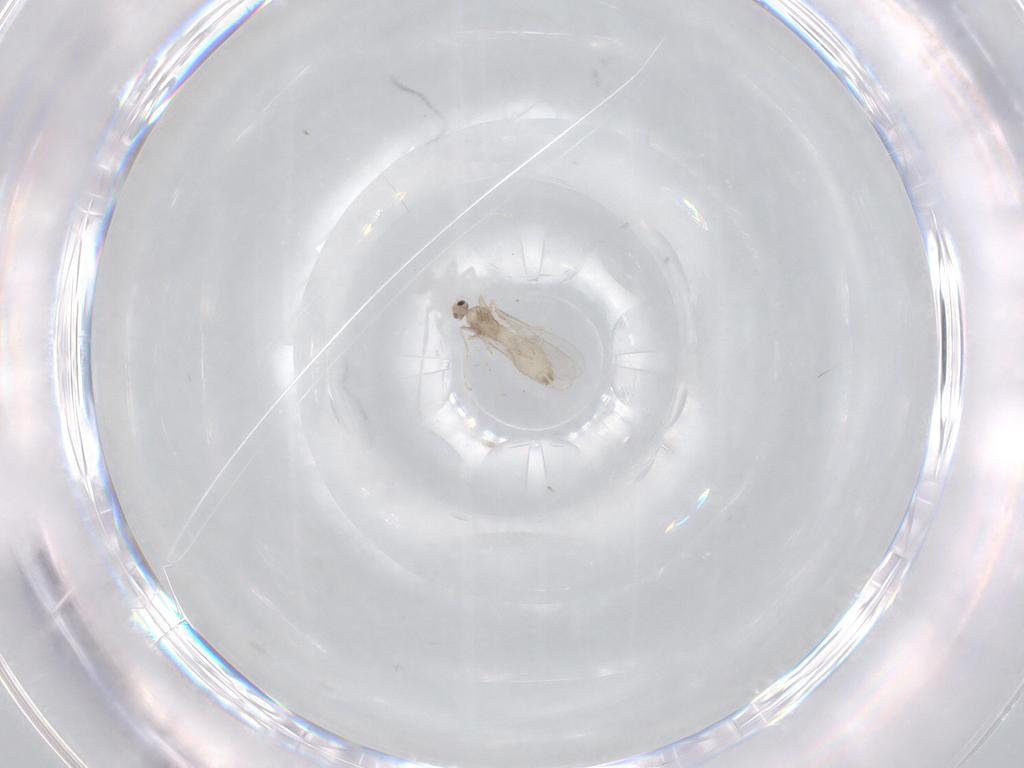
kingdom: Animalia
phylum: Arthropoda
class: Insecta
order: Diptera
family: Cecidomyiidae
